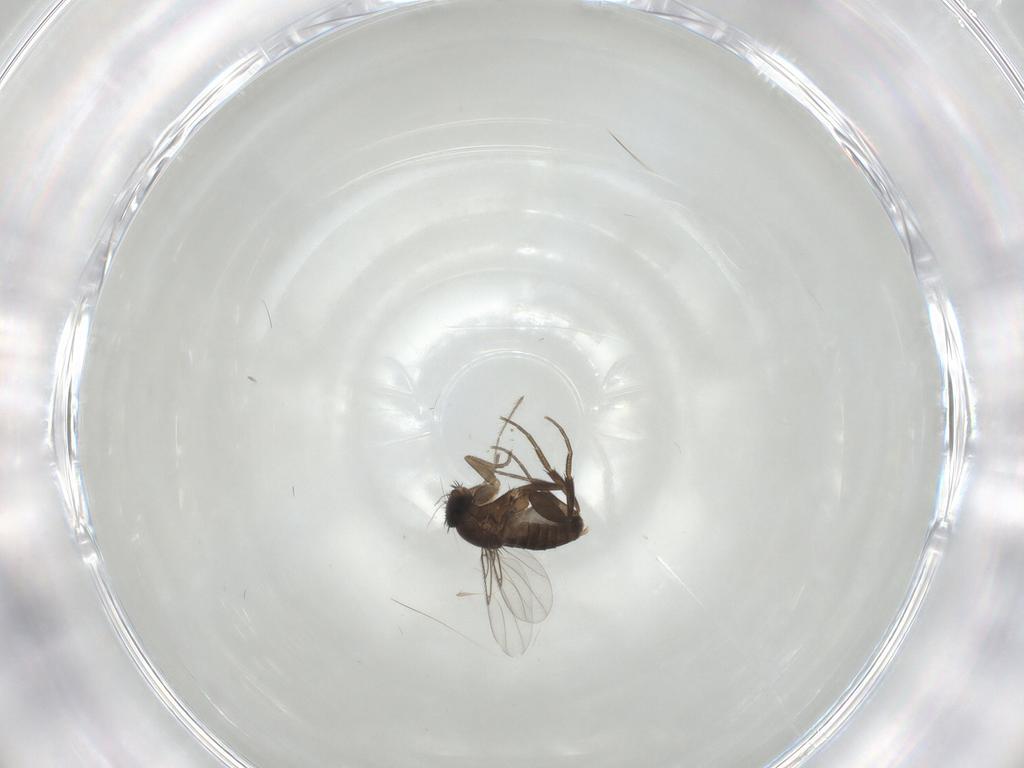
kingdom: Animalia
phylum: Arthropoda
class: Insecta
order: Diptera
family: Phoridae
